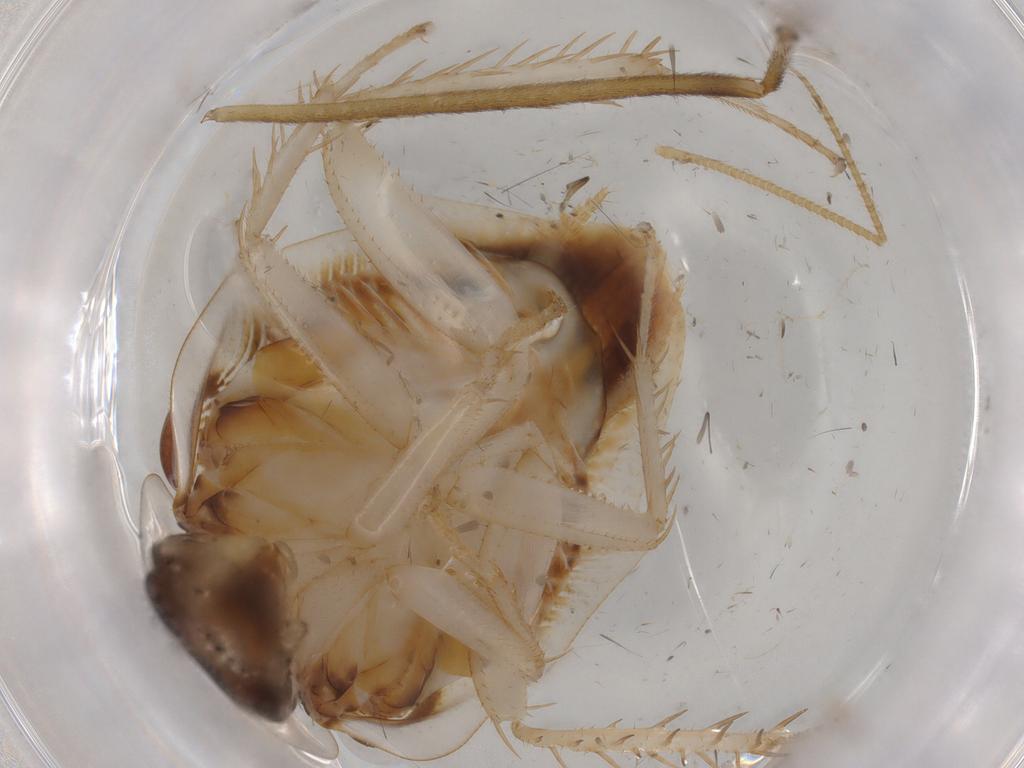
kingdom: Animalia
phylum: Arthropoda
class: Insecta
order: Blattodea
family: Ectobiidae
